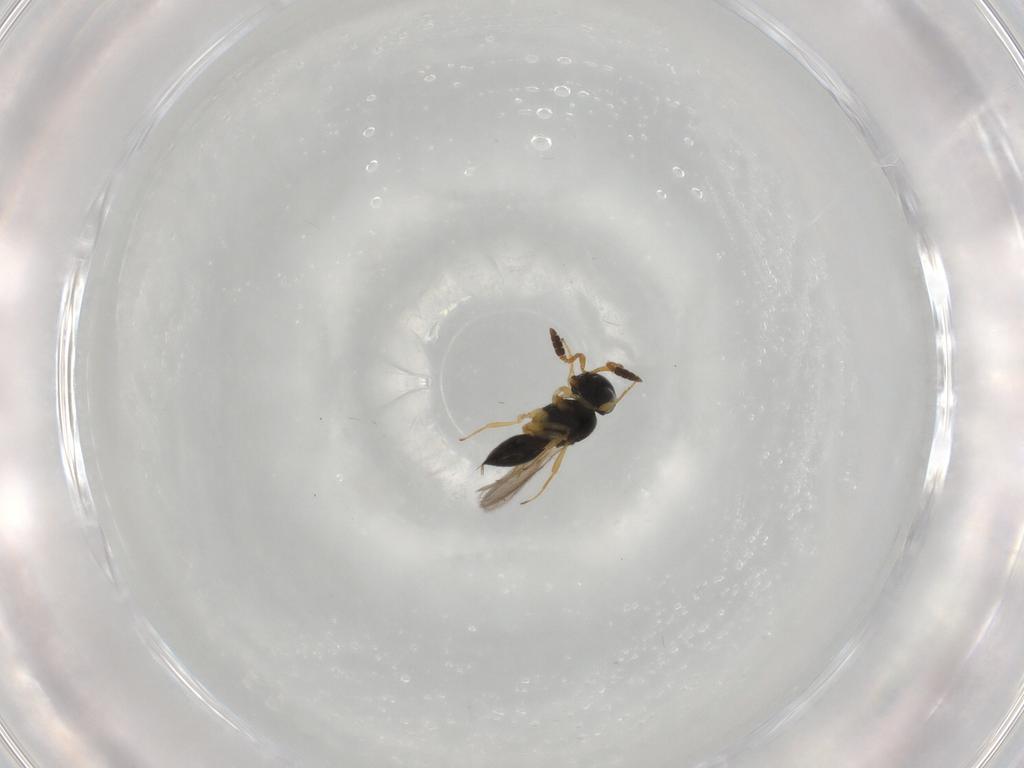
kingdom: Animalia
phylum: Arthropoda
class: Insecta
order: Hymenoptera
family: Scelionidae
